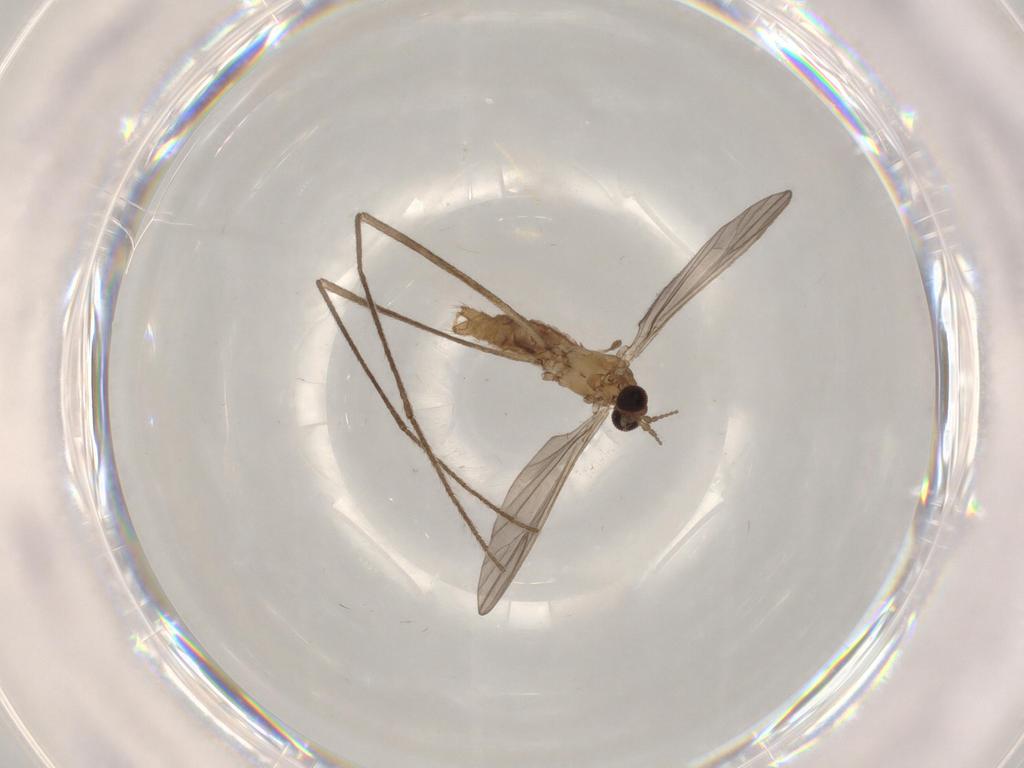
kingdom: Animalia
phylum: Arthropoda
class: Insecta
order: Diptera
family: Limoniidae
